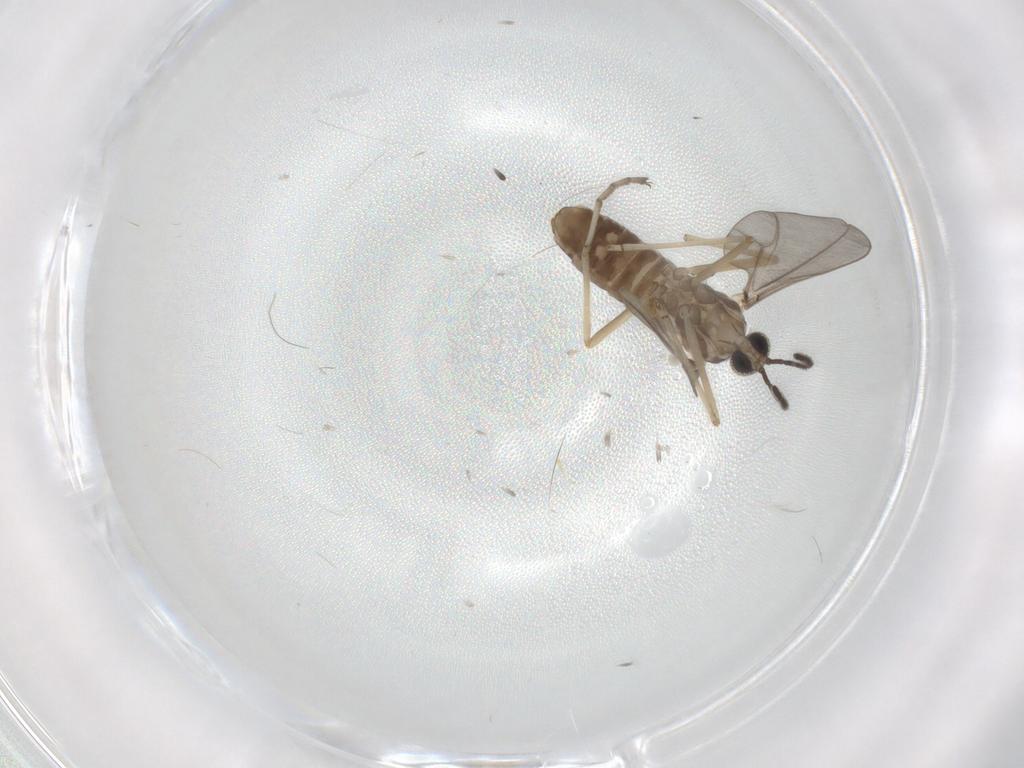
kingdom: Animalia
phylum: Arthropoda
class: Insecta
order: Diptera
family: Cecidomyiidae
